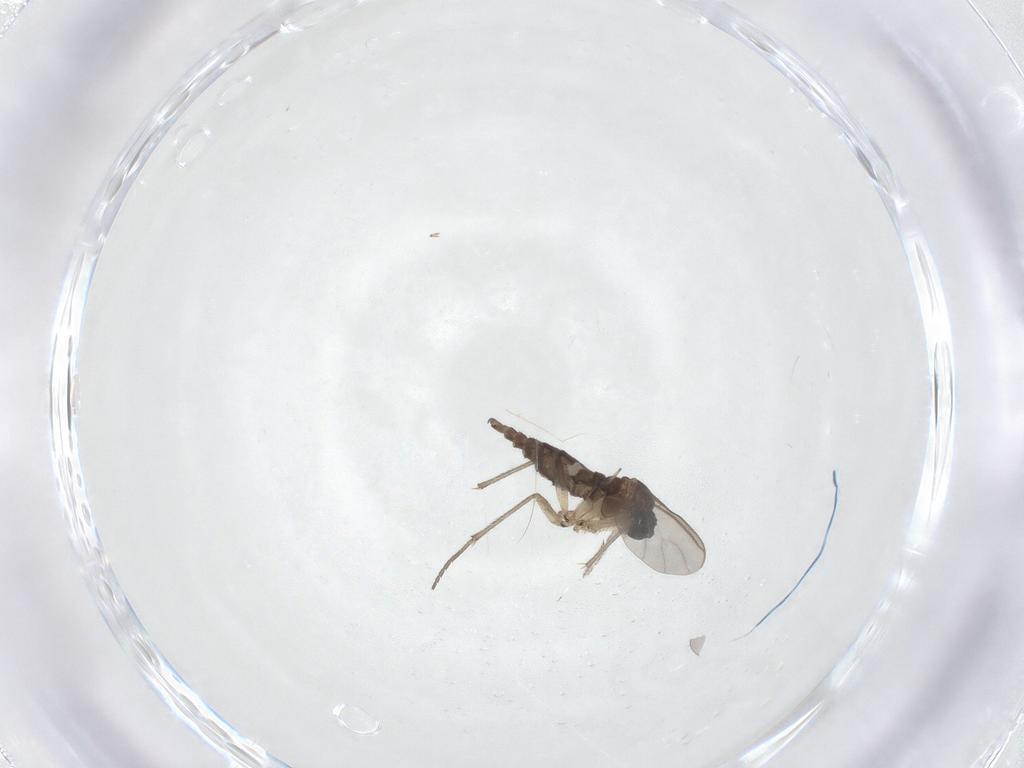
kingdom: Animalia
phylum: Arthropoda
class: Insecta
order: Diptera
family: Sciaridae
